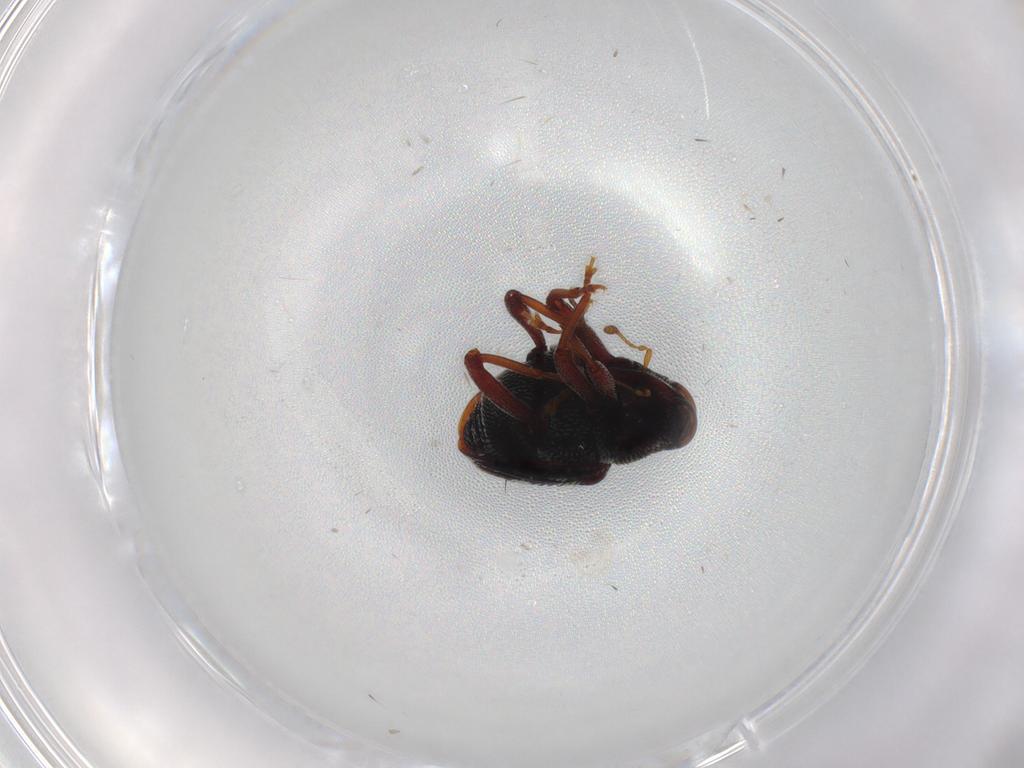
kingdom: Animalia
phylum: Arthropoda
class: Insecta
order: Coleoptera
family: Curculionidae
